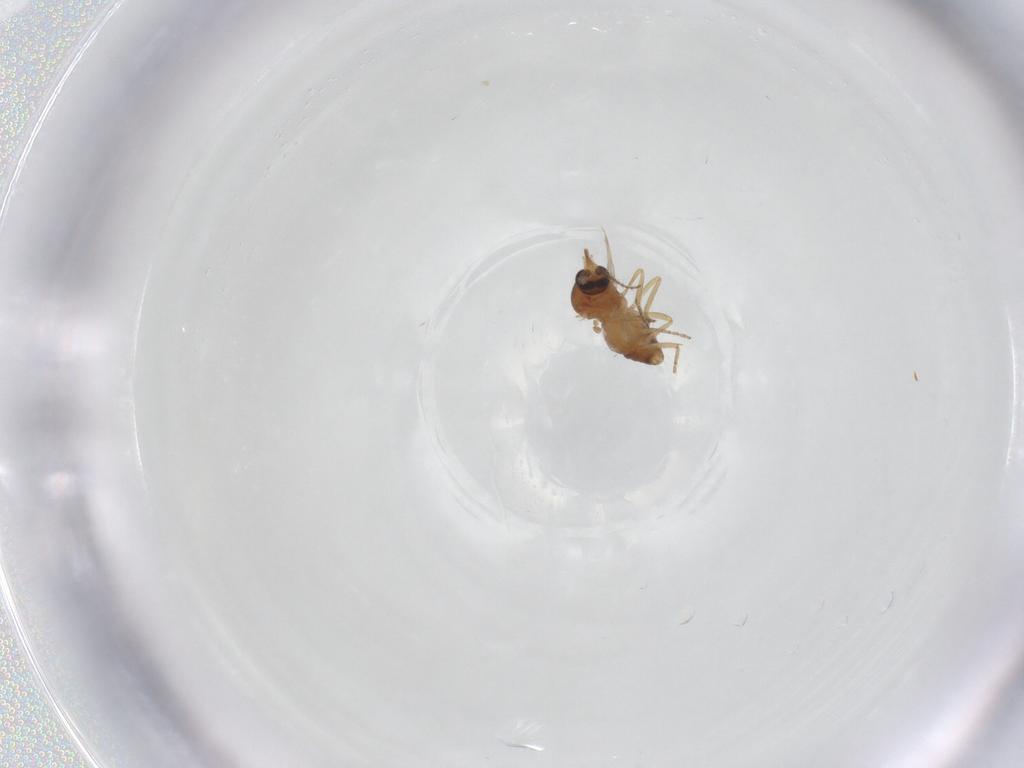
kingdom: Animalia
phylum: Arthropoda
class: Insecta
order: Diptera
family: Ceratopogonidae
